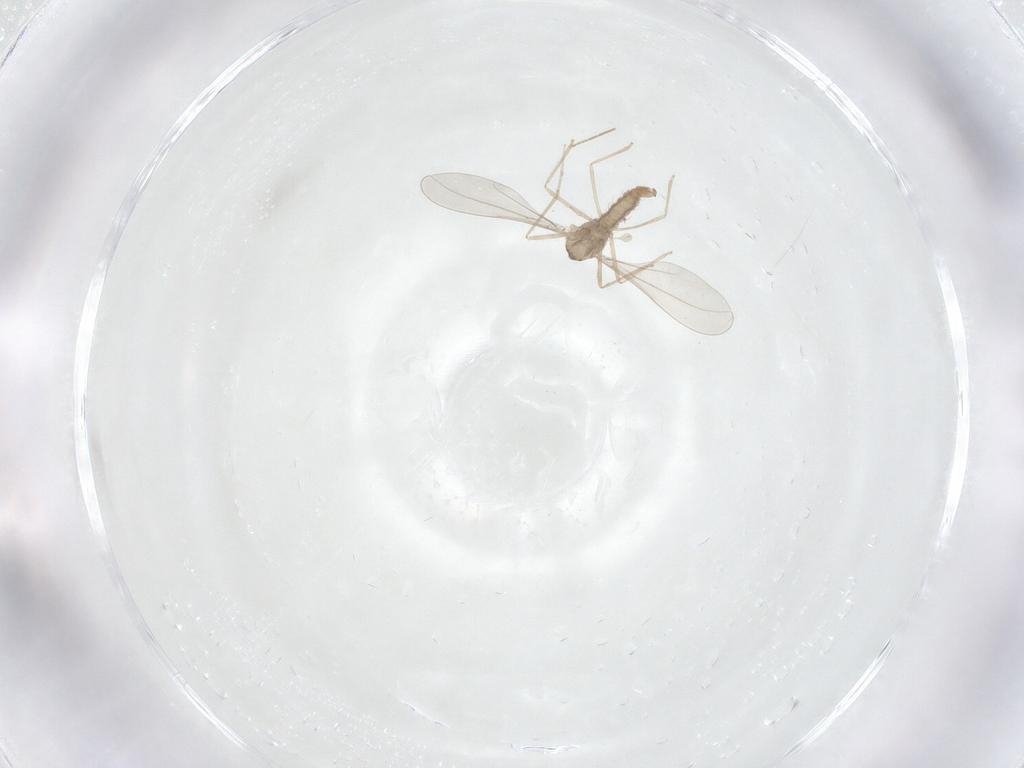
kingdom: Animalia
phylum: Arthropoda
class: Insecta
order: Diptera
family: Cecidomyiidae
